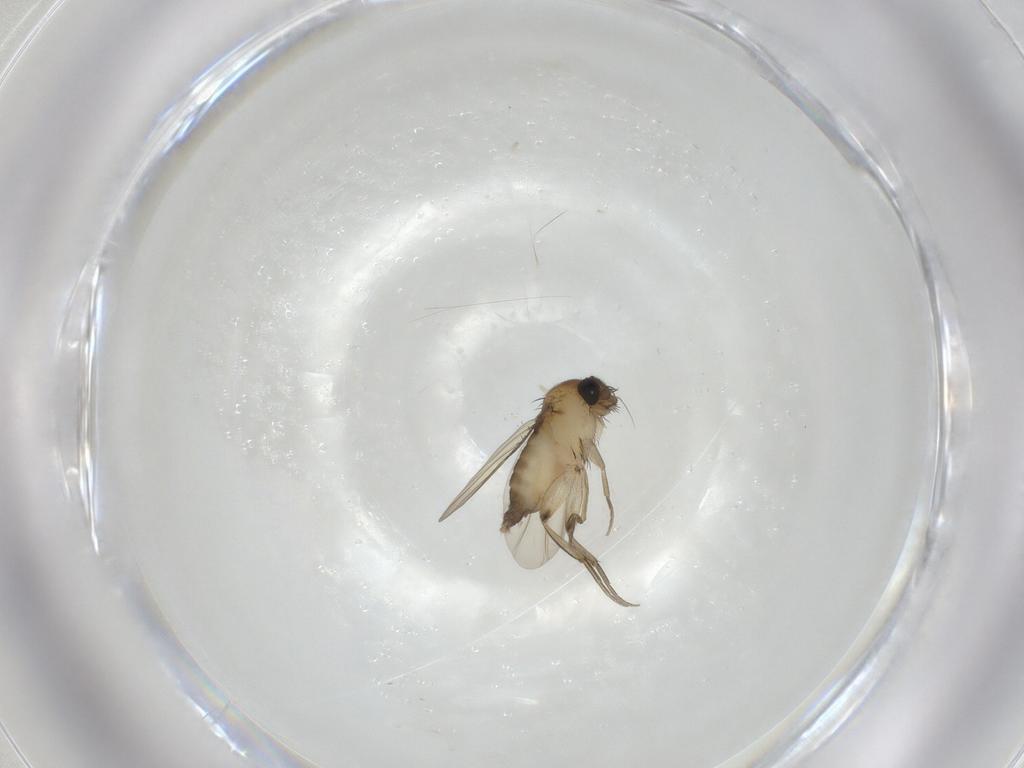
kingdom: Animalia
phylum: Arthropoda
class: Insecta
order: Diptera
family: Phoridae
